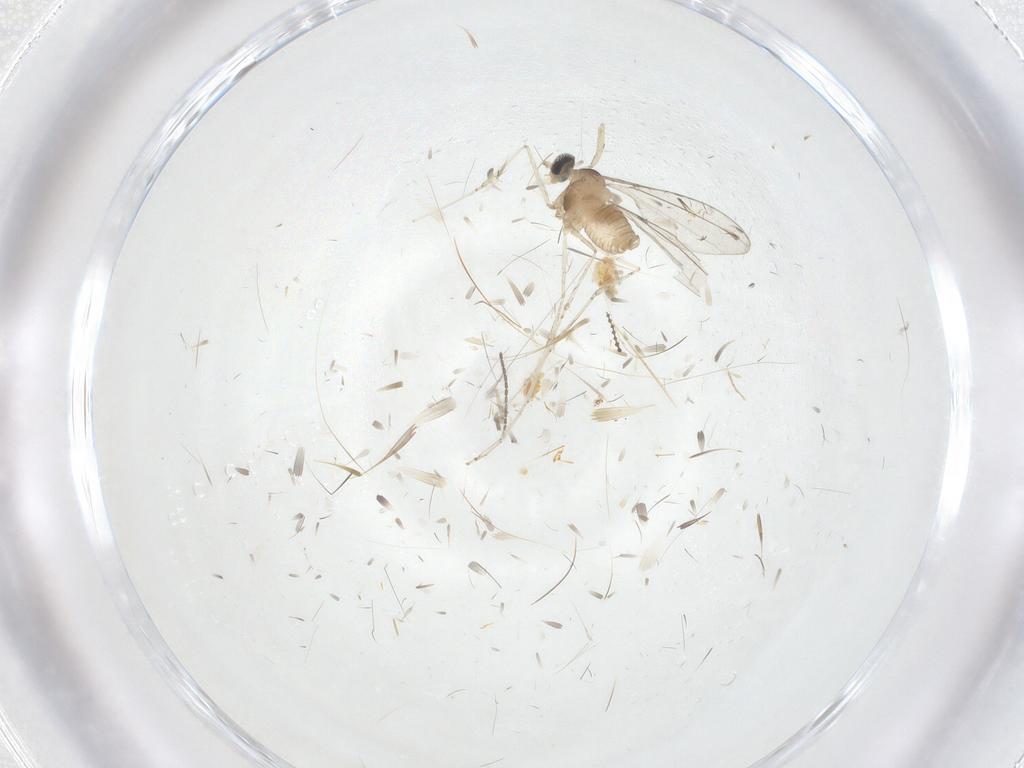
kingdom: Animalia
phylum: Arthropoda
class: Insecta
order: Diptera
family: Cecidomyiidae
